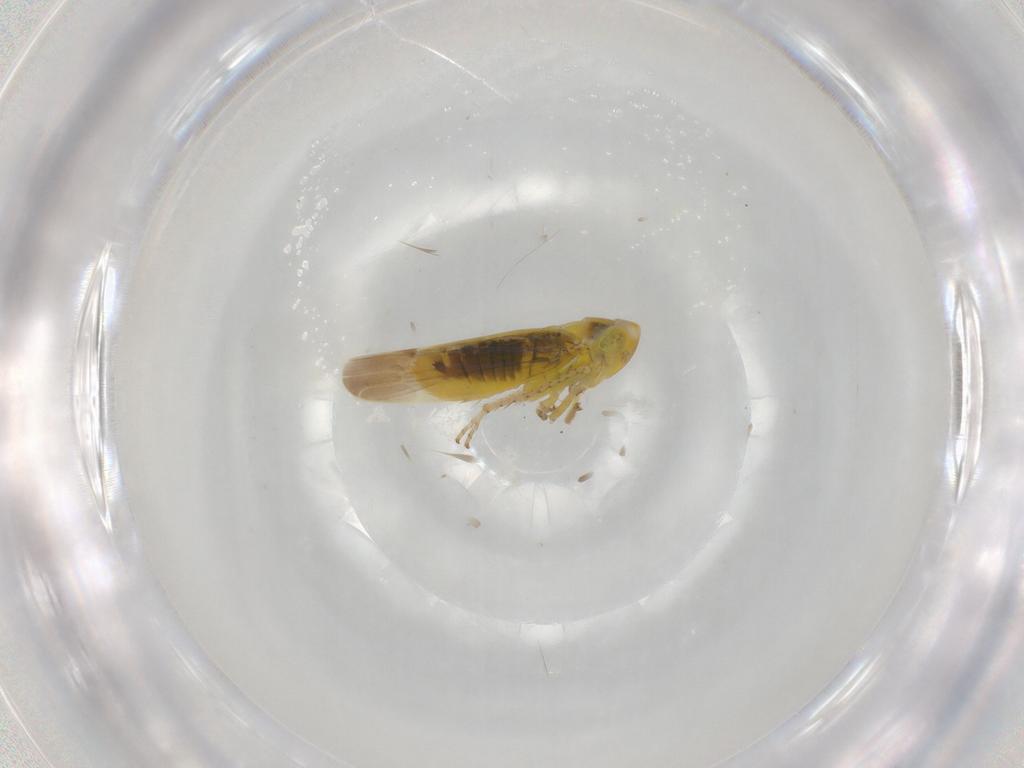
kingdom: Animalia
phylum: Arthropoda
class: Insecta
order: Hemiptera
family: Cicadellidae
